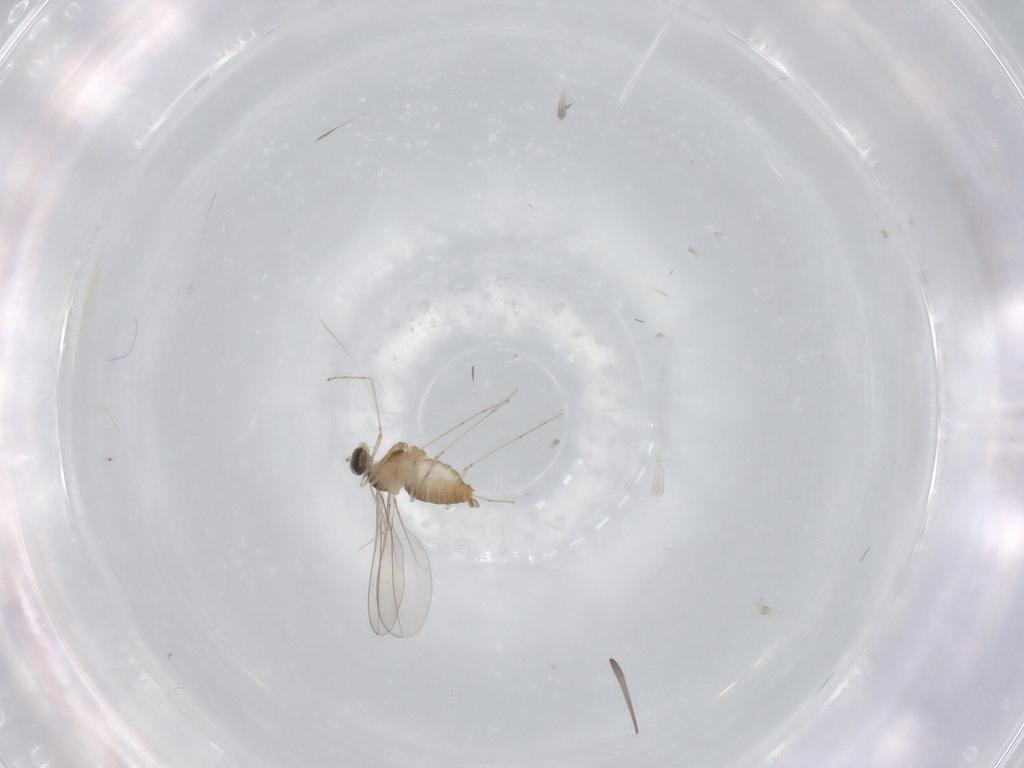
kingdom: Animalia
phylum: Arthropoda
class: Insecta
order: Diptera
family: Cecidomyiidae
